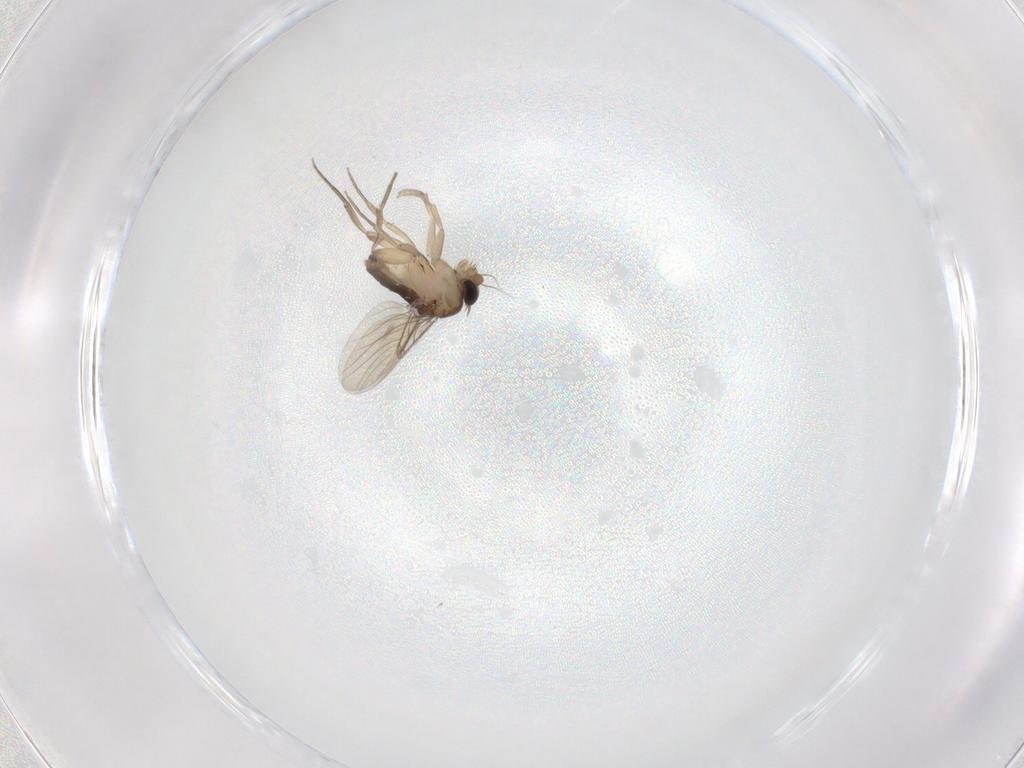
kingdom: Animalia
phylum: Arthropoda
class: Insecta
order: Diptera
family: Phoridae
